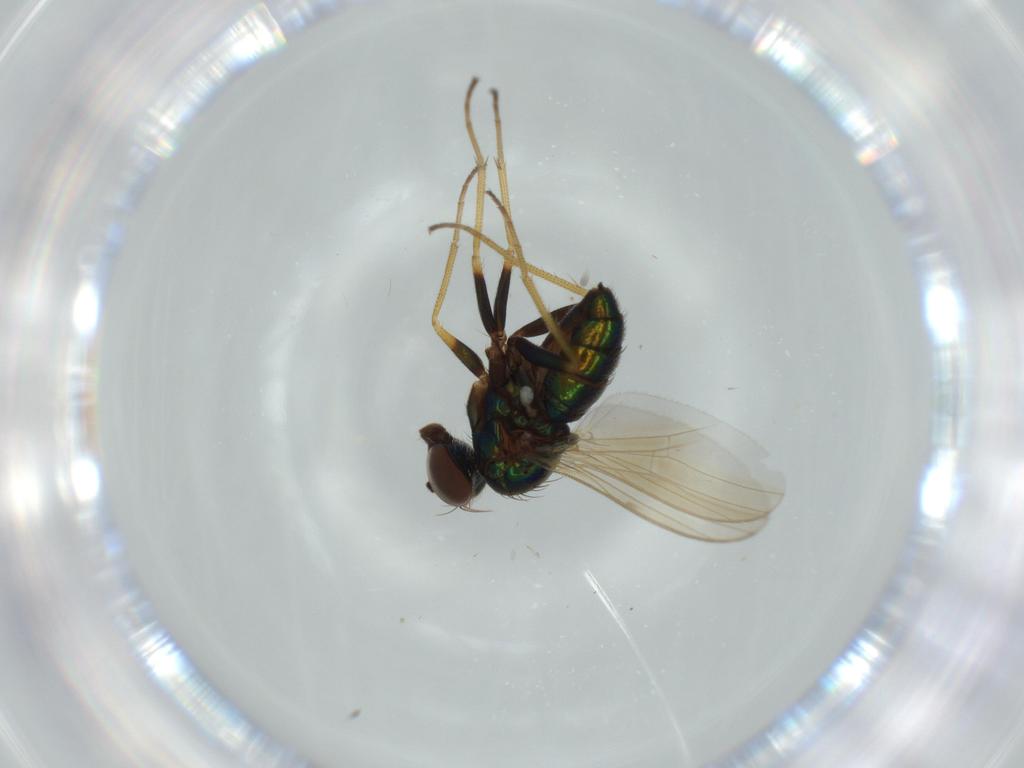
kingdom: Animalia
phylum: Arthropoda
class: Insecta
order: Diptera
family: Dolichopodidae
